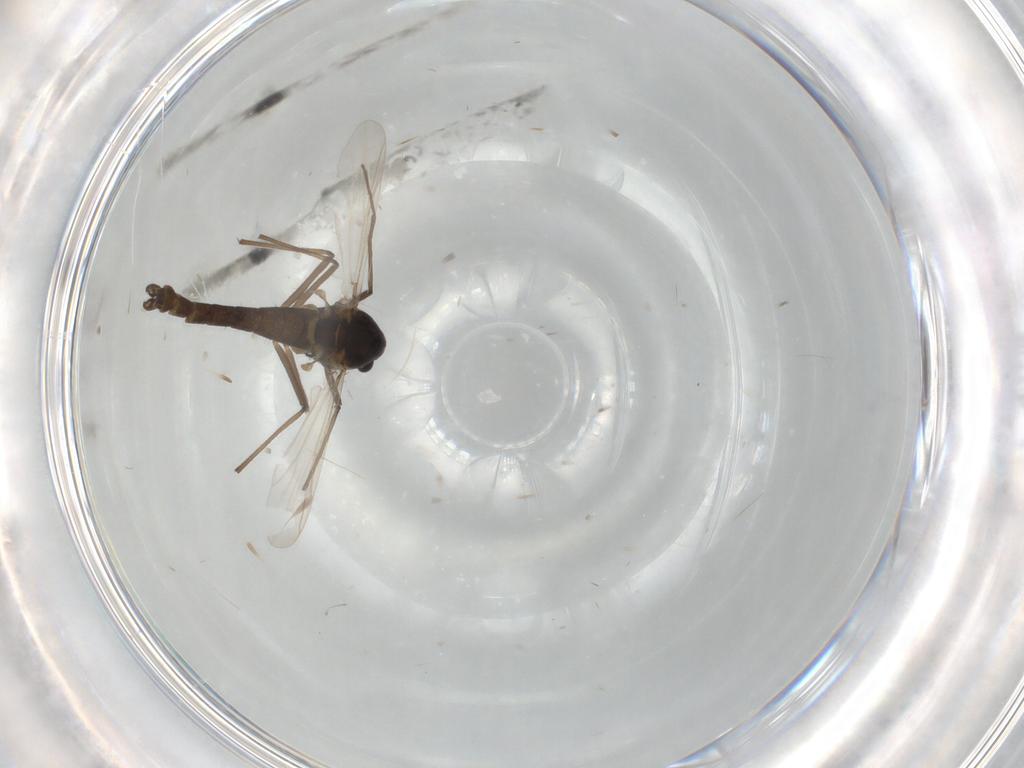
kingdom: Animalia
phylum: Arthropoda
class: Insecta
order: Diptera
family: Chironomidae
